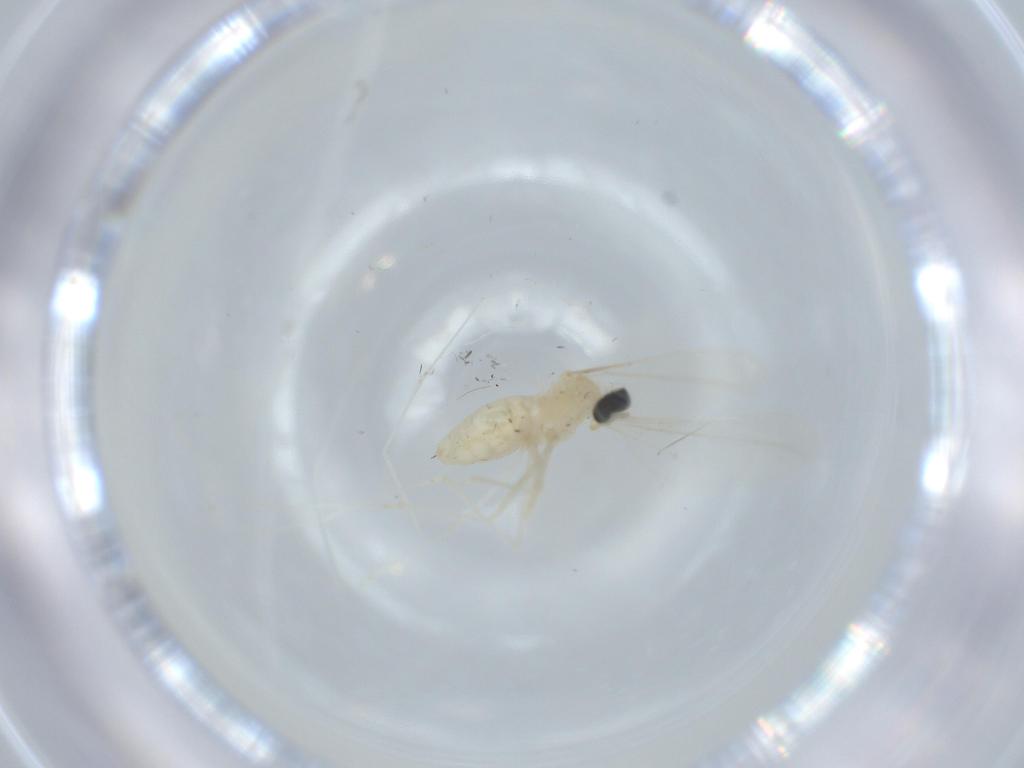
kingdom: Animalia
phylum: Arthropoda
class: Insecta
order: Diptera
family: Cecidomyiidae
